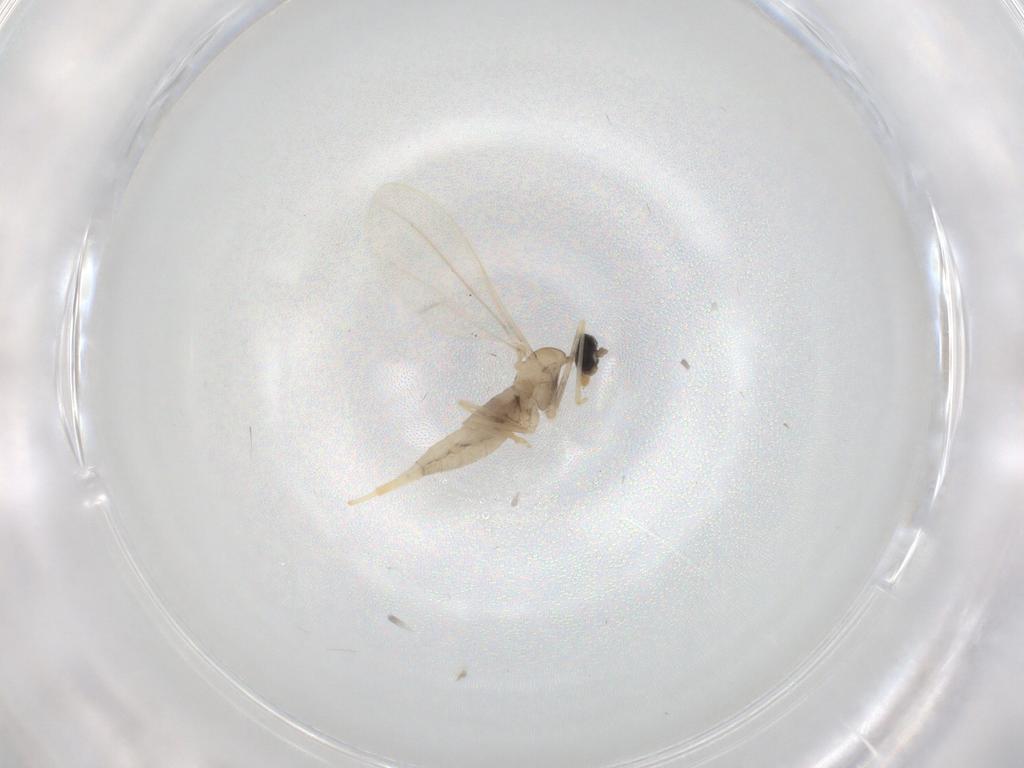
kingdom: Animalia
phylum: Arthropoda
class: Insecta
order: Diptera
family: Cecidomyiidae
